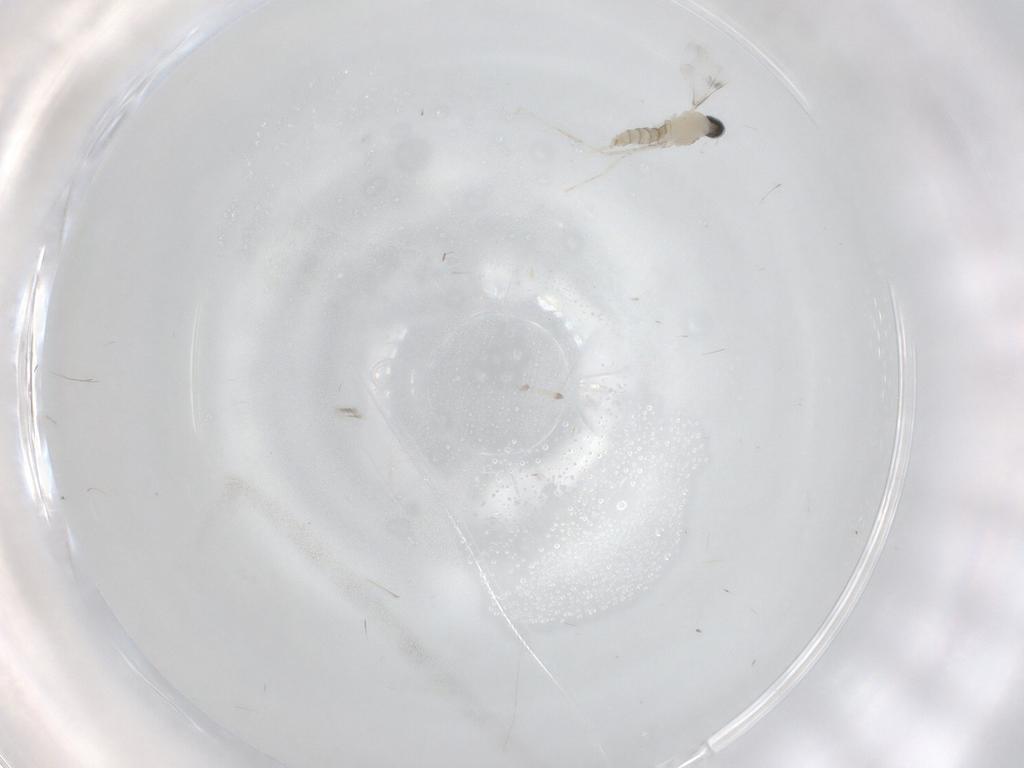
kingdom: Animalia
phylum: Arthropoda
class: Insecta
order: Diptera
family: Cecidomyiidae
